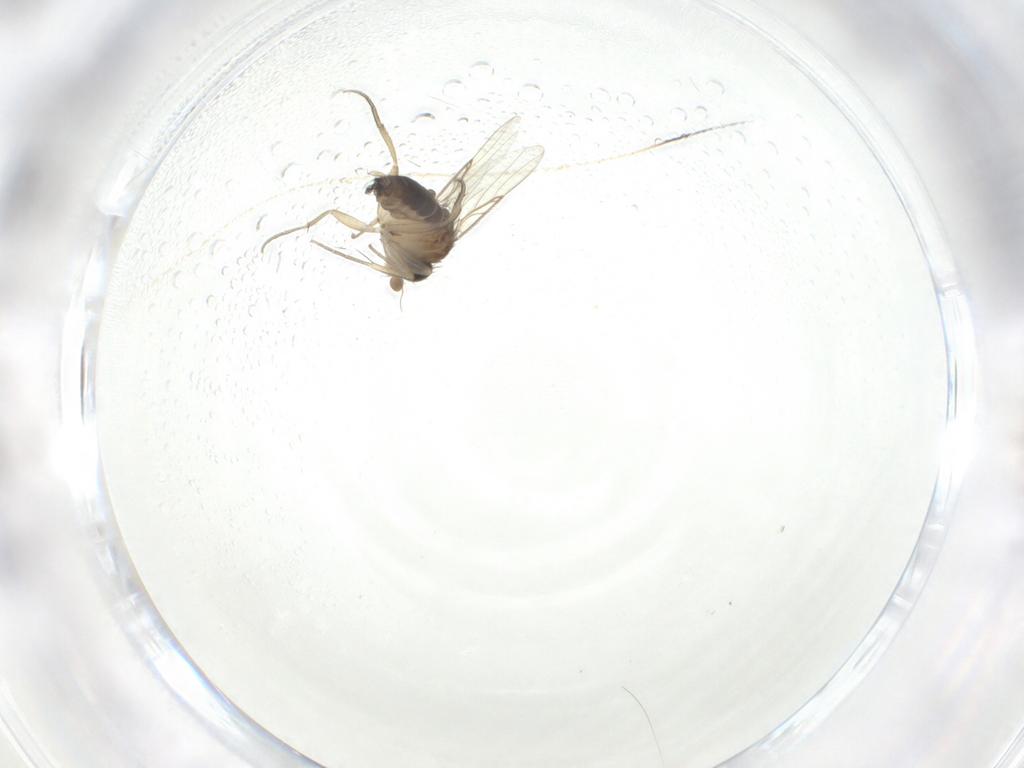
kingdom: Animalia
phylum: Arthropoda
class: Insecta
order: Diptera
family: Phoridae
